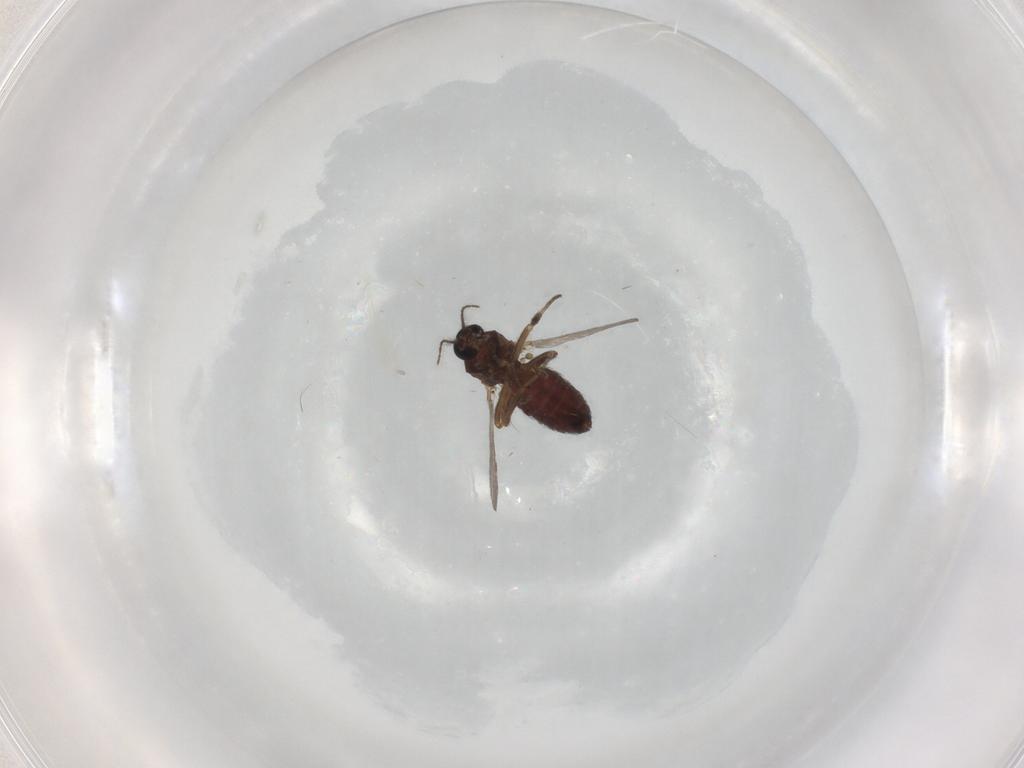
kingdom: Animalia
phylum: Arthropoda
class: Insecta
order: Diptera
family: Ceratopogonidae
